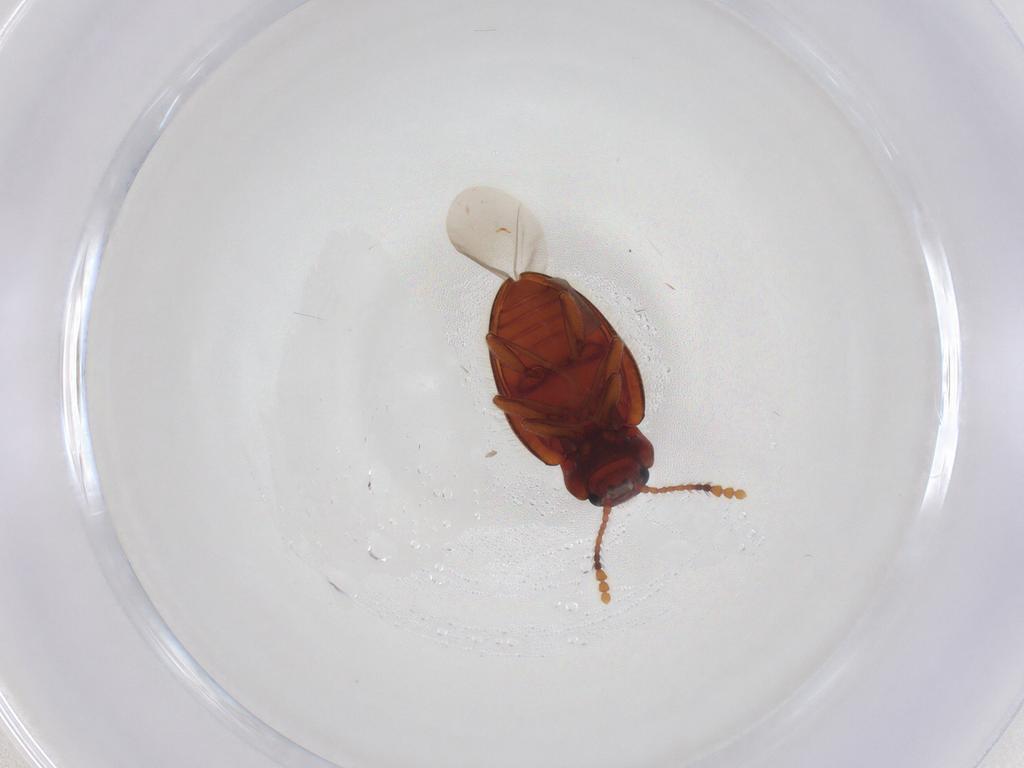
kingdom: Animalia
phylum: Arthropoda
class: Insecta
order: Coleoptera
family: Erotylidae
